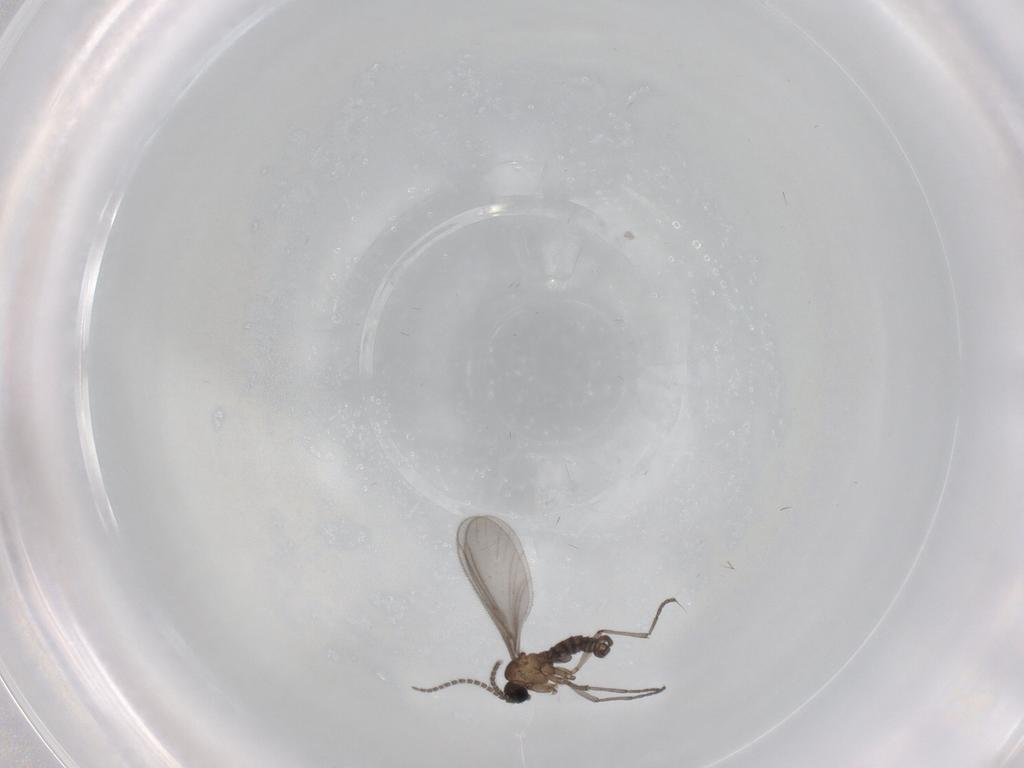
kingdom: Animalia
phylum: Arthropoda
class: Insecta
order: Diptera
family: Sciaridae
